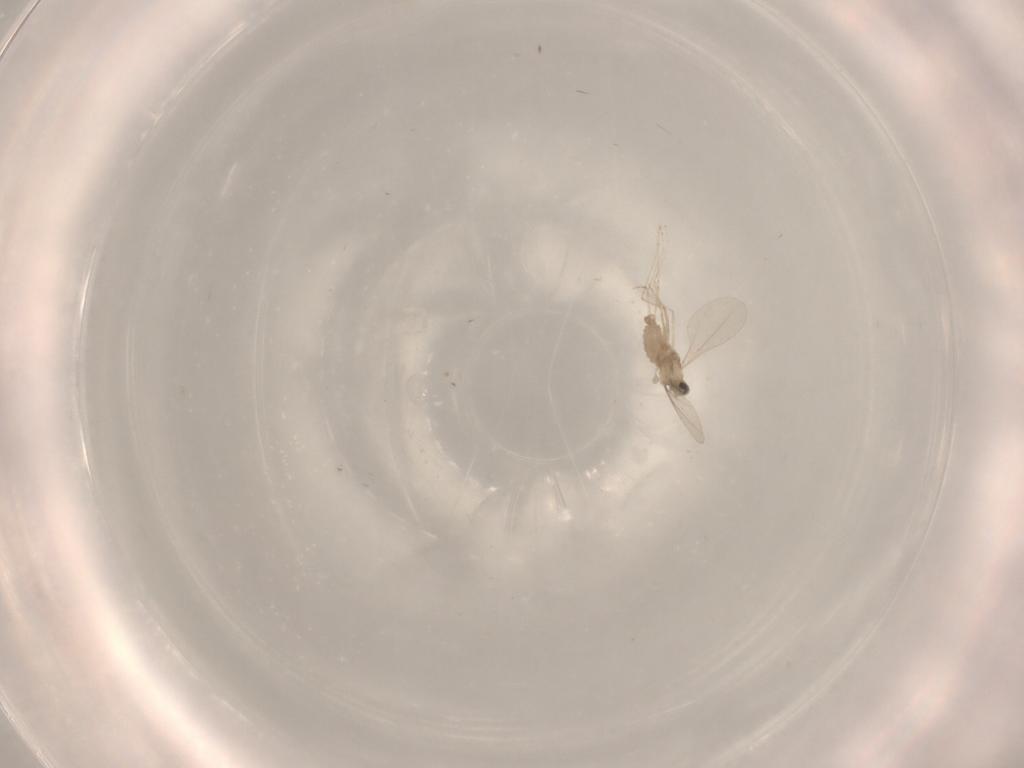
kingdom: Animalia
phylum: Arthropoda
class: Insecta
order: Diptera
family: Cecidomyiidae
